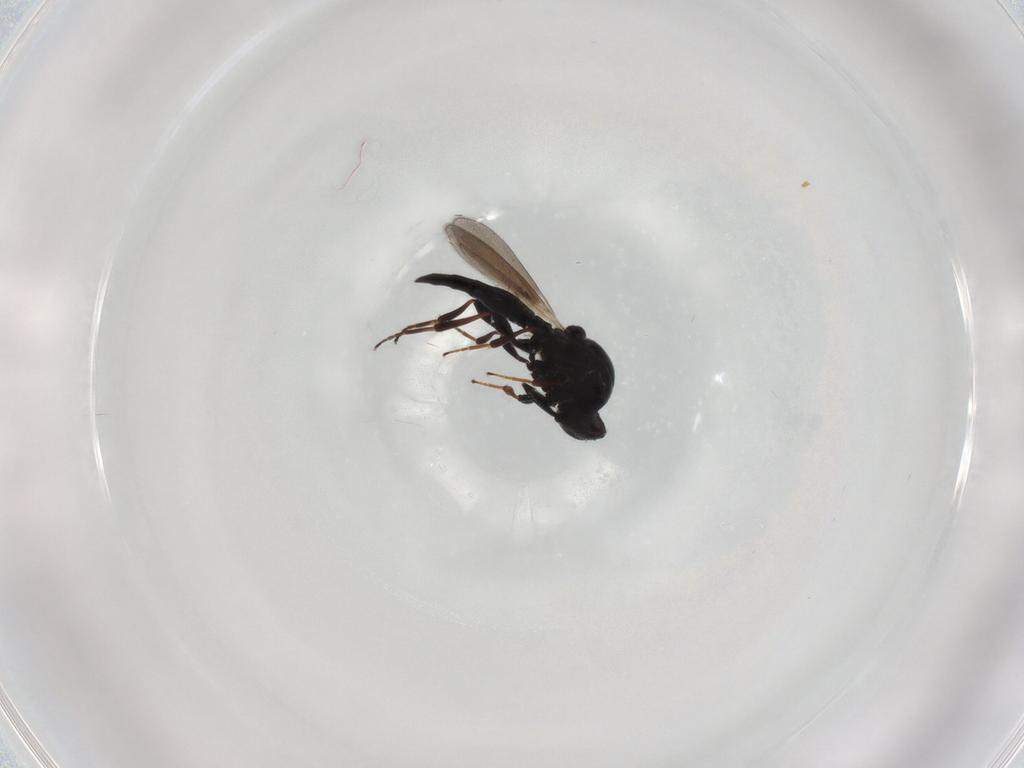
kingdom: Animalia
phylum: Arthropoda
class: Insecta
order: Hymenoptera
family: Platygastridae
